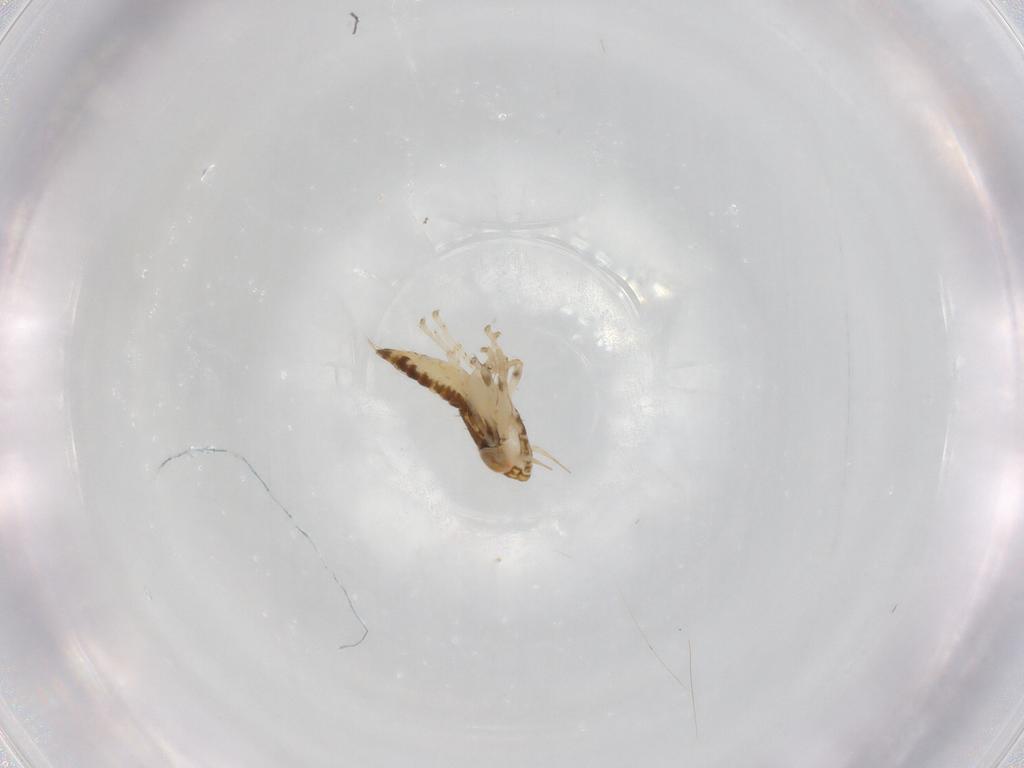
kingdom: Animalia
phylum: Arthropoda
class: Insecta
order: Hemiptera
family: Cicadellidae
